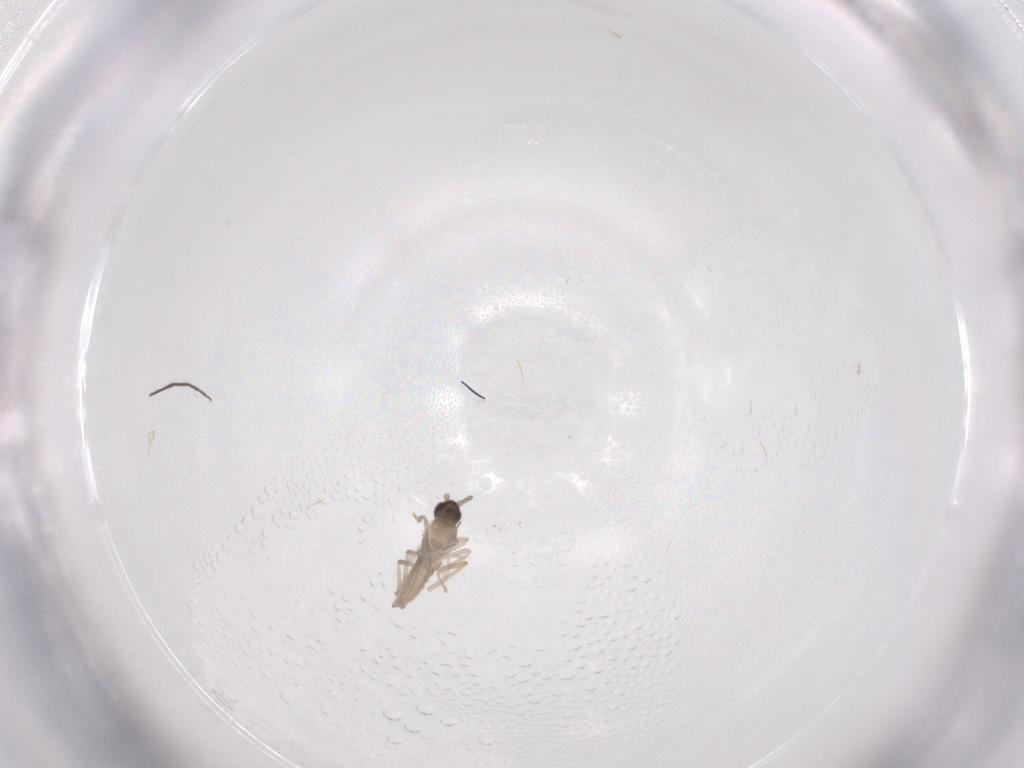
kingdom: Animalia
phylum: Arthropoda
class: Insecta
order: Diptera
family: Cecidomyiidae
